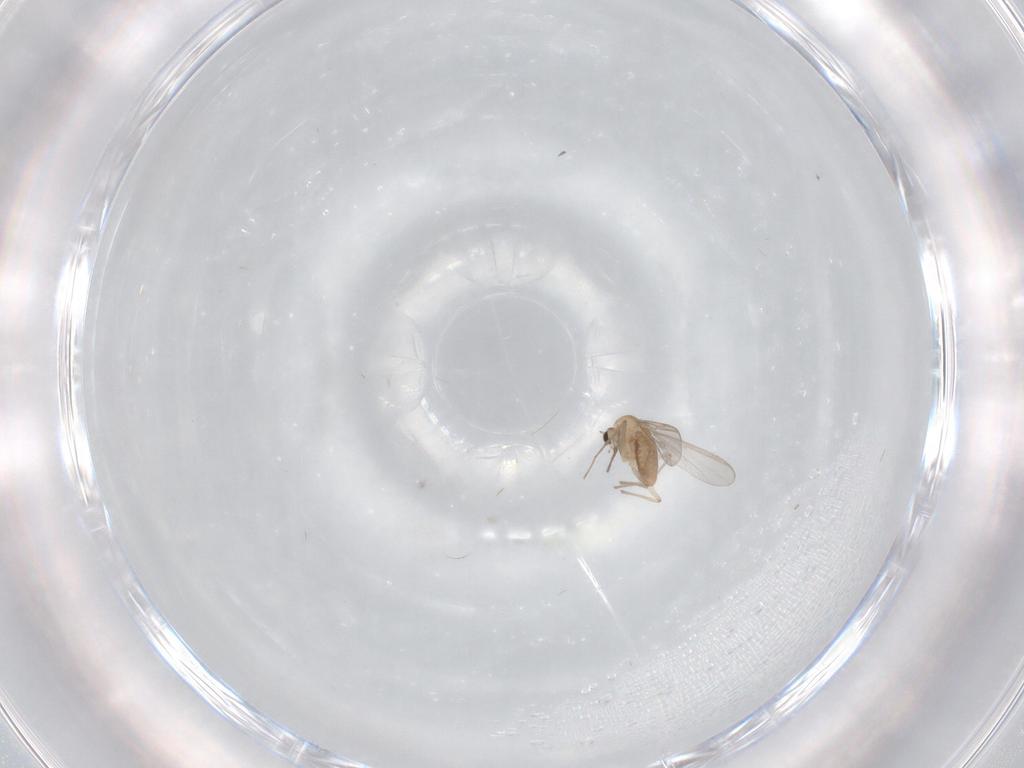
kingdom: Animalia
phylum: Arthropoda
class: Insecta
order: Diptera
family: Chironomidae
